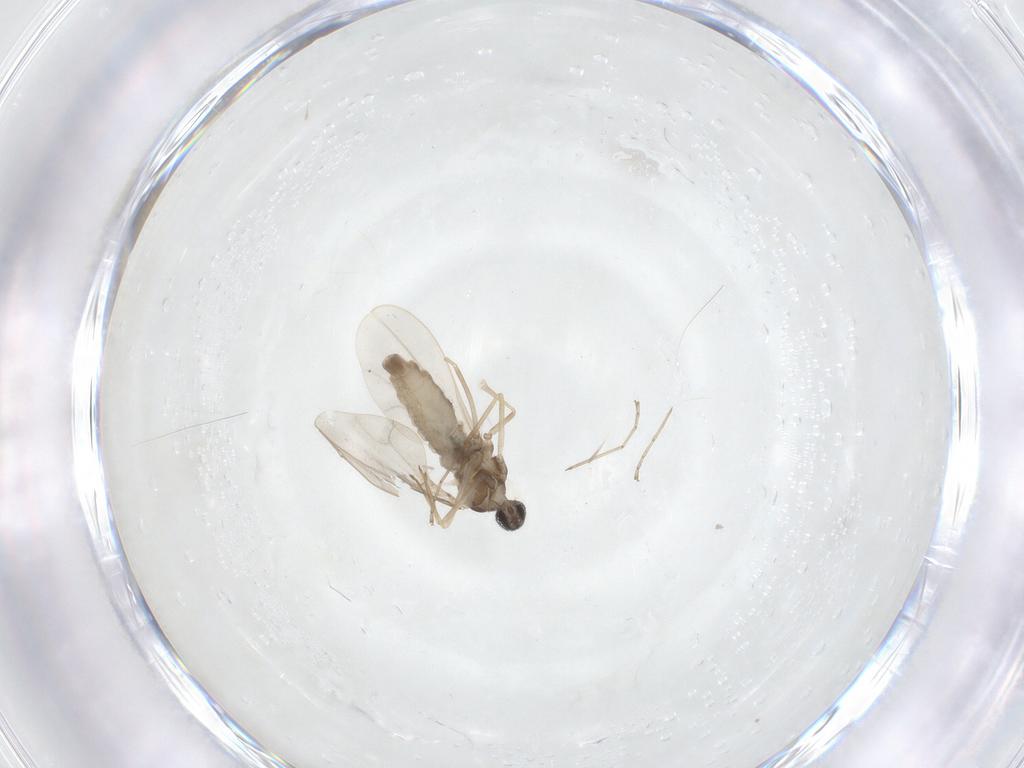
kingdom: Animalia
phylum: Arthropoda
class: Insecta
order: Diptera
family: Cecidomyiidae
